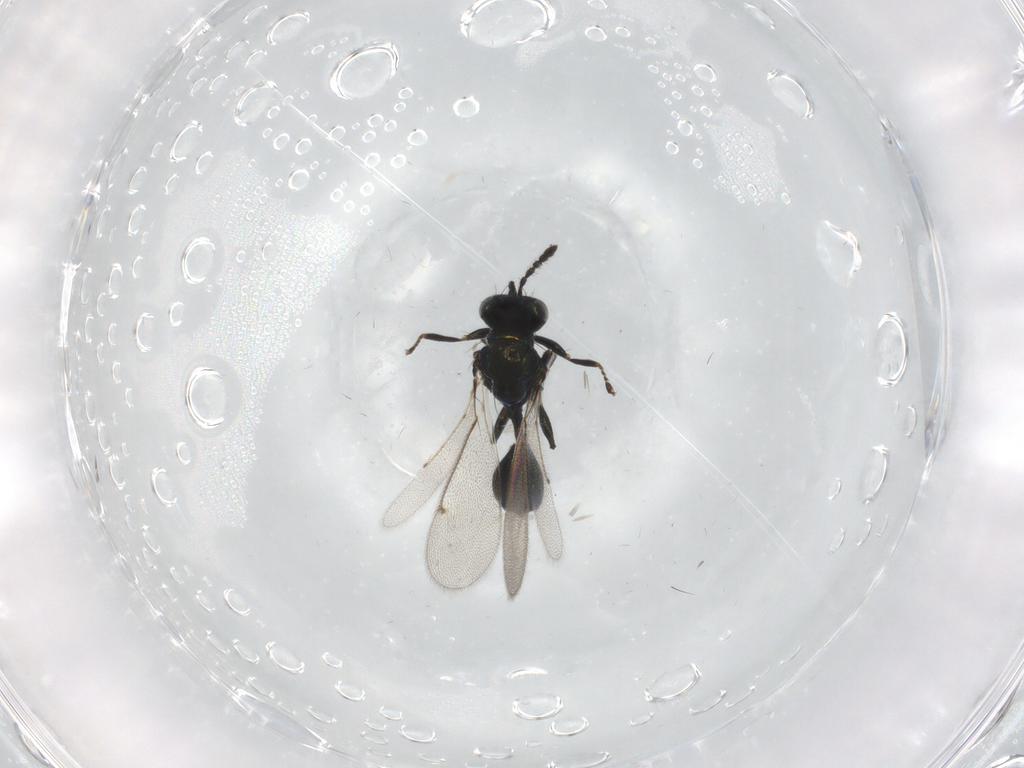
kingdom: Animalia
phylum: Arthropoda
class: Insecta
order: Hymenoptera
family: Eulophidae
